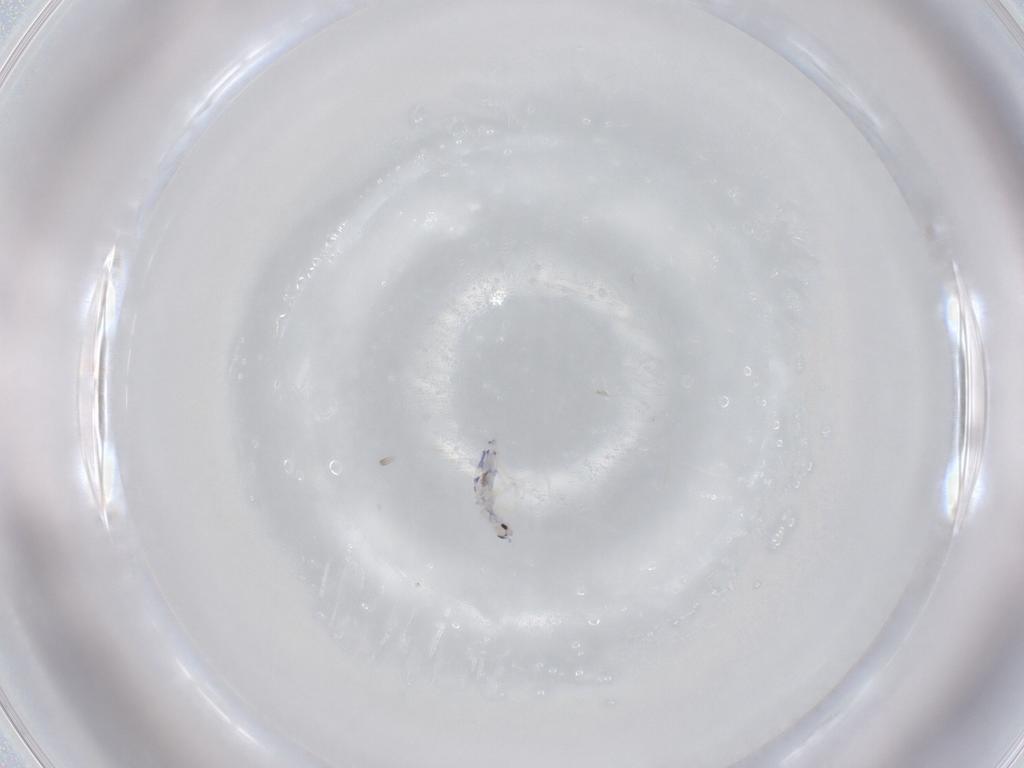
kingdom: Animalia
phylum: Arthropoda
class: Collembola
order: Entomobryomorpha
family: Entomobryidae
